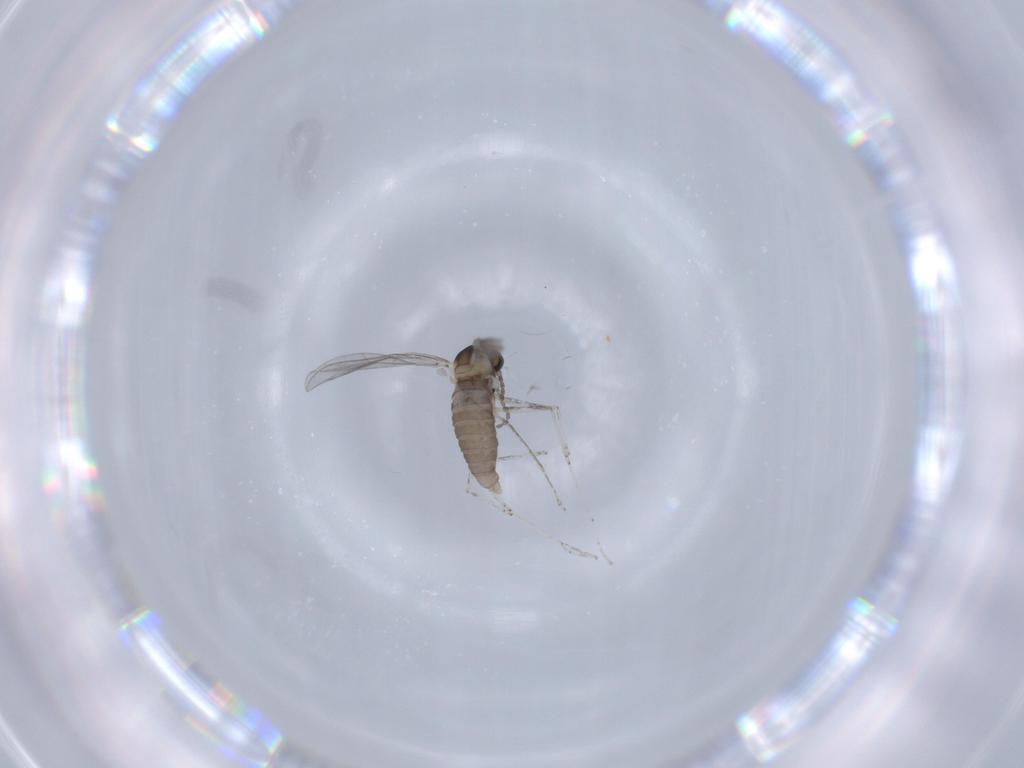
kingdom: Animalia
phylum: Arthropoda
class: Insecta
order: Diptera
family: Cecidomyiidae
